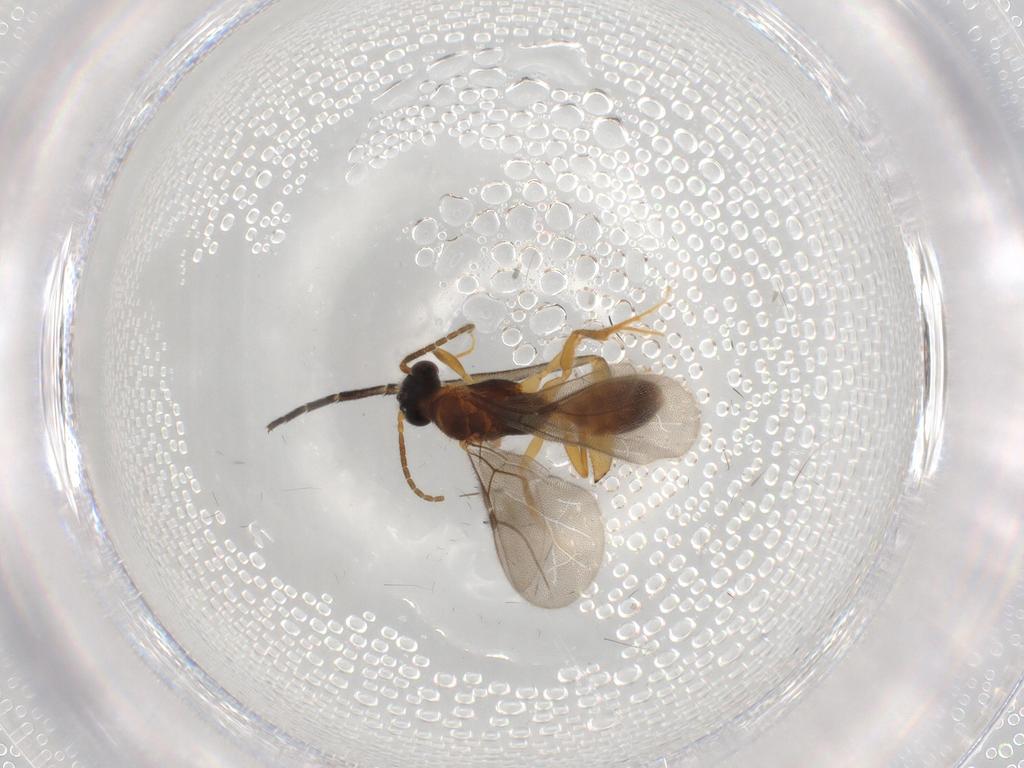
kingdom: Animalia
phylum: Arthropoda
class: Insecta
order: Hymenoptera
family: Bethylidae
